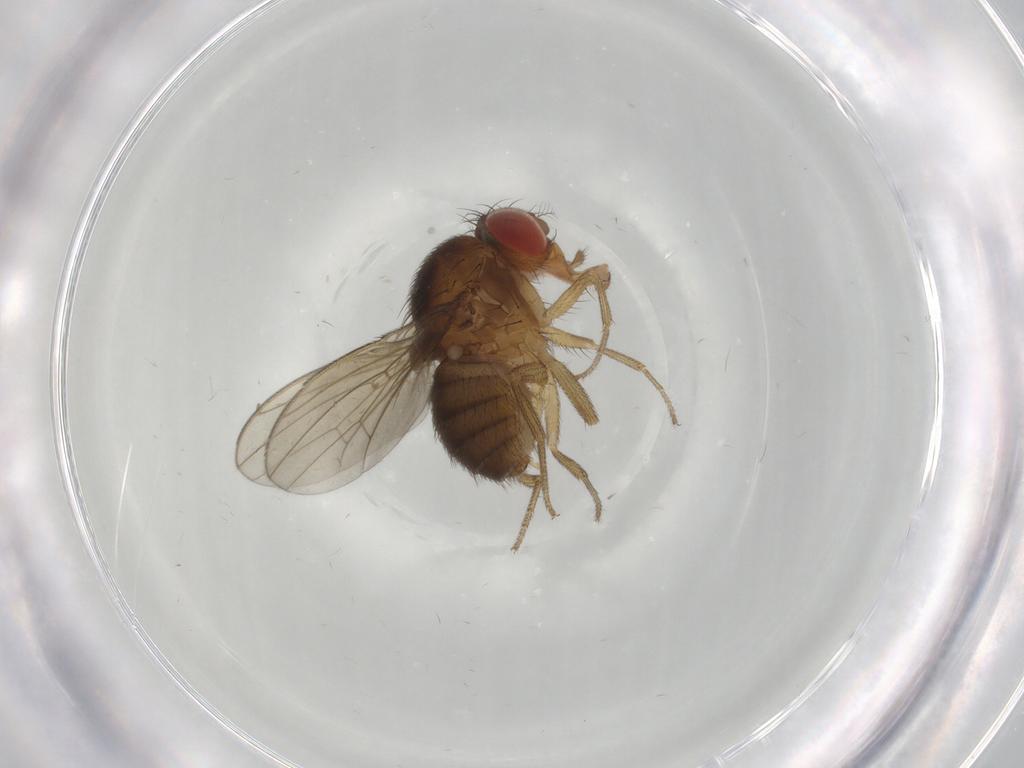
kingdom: Animalia
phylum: Arthropoda
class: Insecta
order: Diptera
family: Drosophilidae
